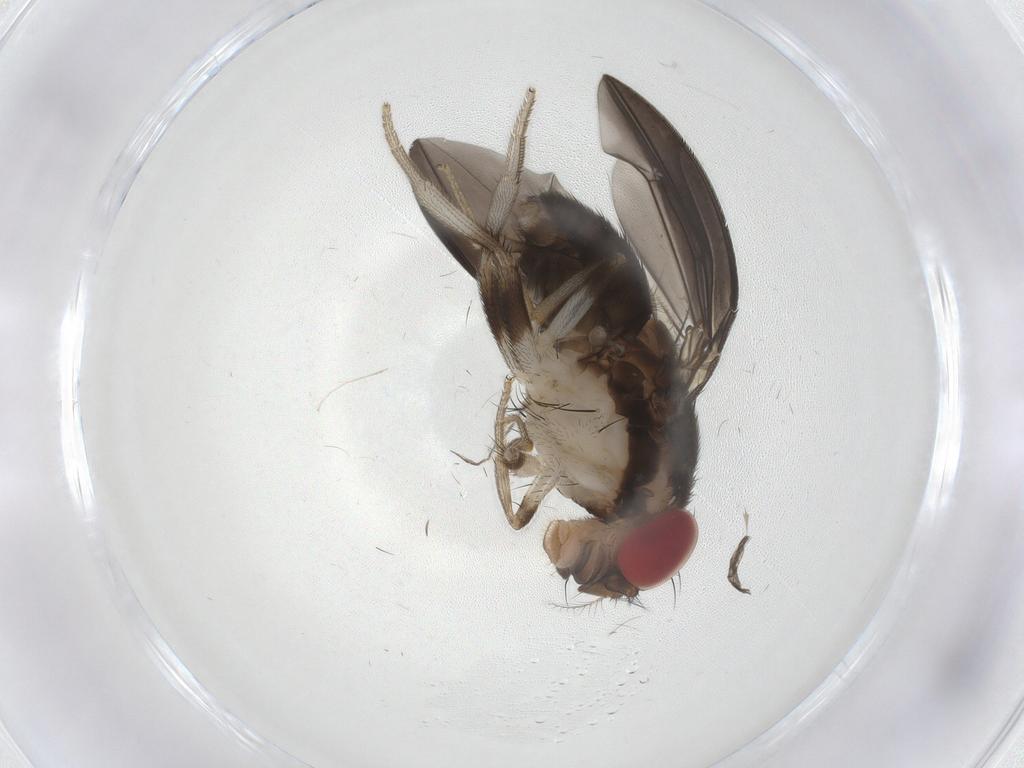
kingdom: Animalia
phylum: Arthropoda
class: Insecta
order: Diptera
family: Drosophilidae
